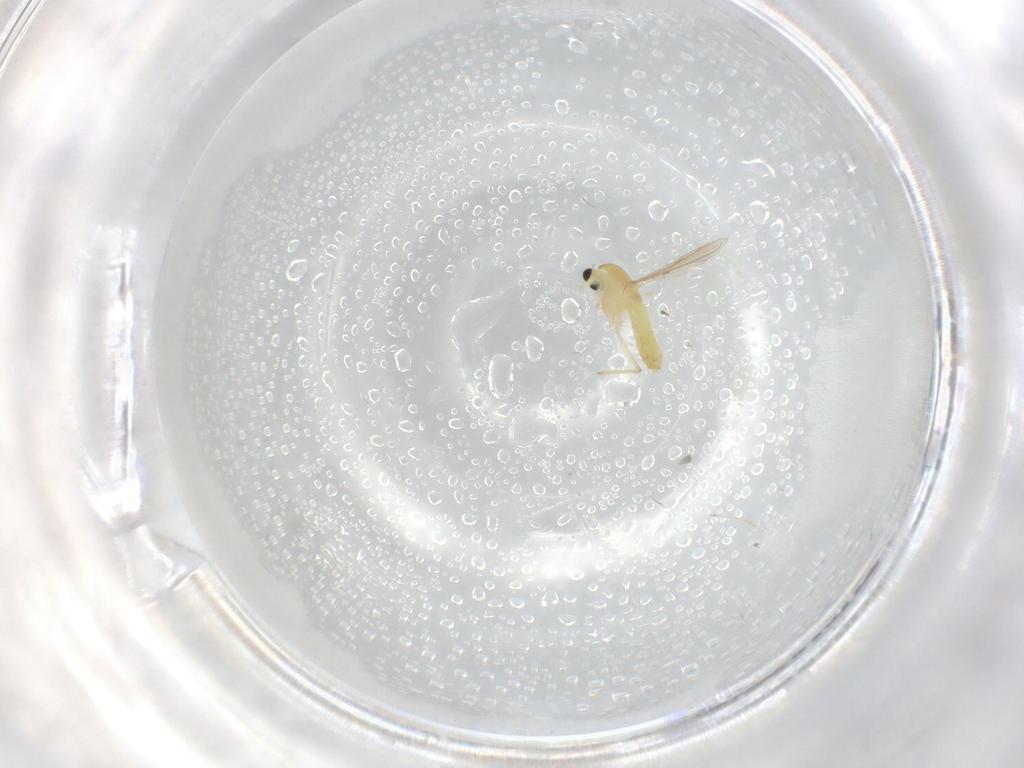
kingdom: Animalia
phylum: Arthropoda
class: Insecta
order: Diptera
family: Chironomidae
